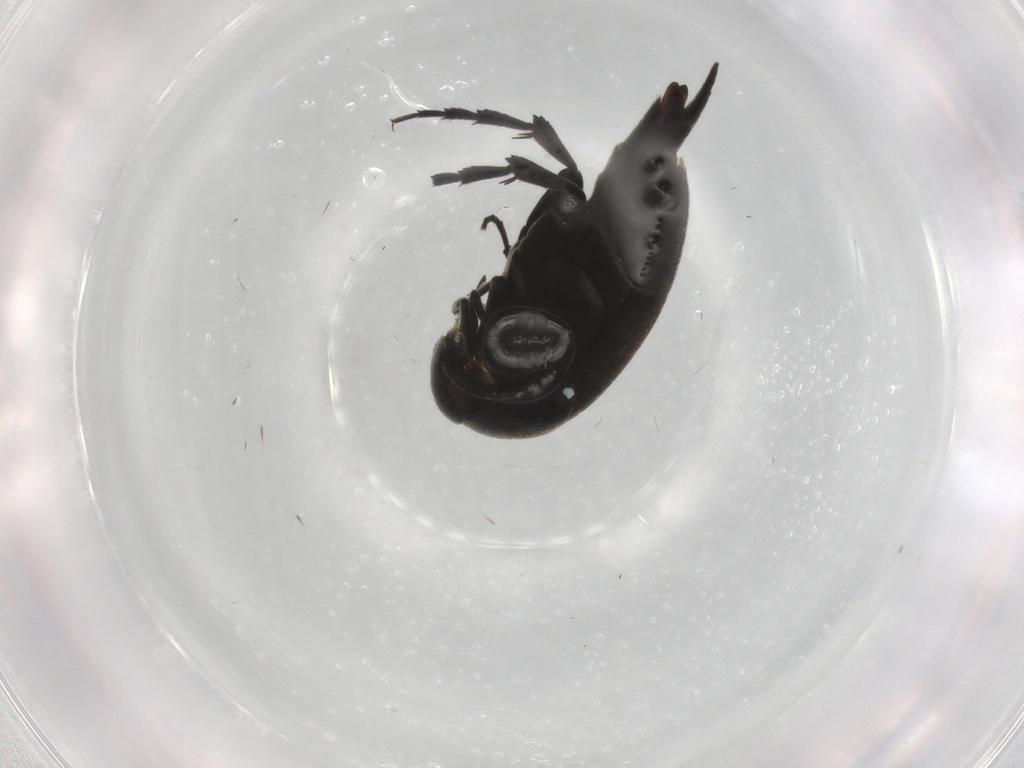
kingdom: Animalia
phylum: Arthropoda
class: Insecta
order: Coleoptera
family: Mordellidae
